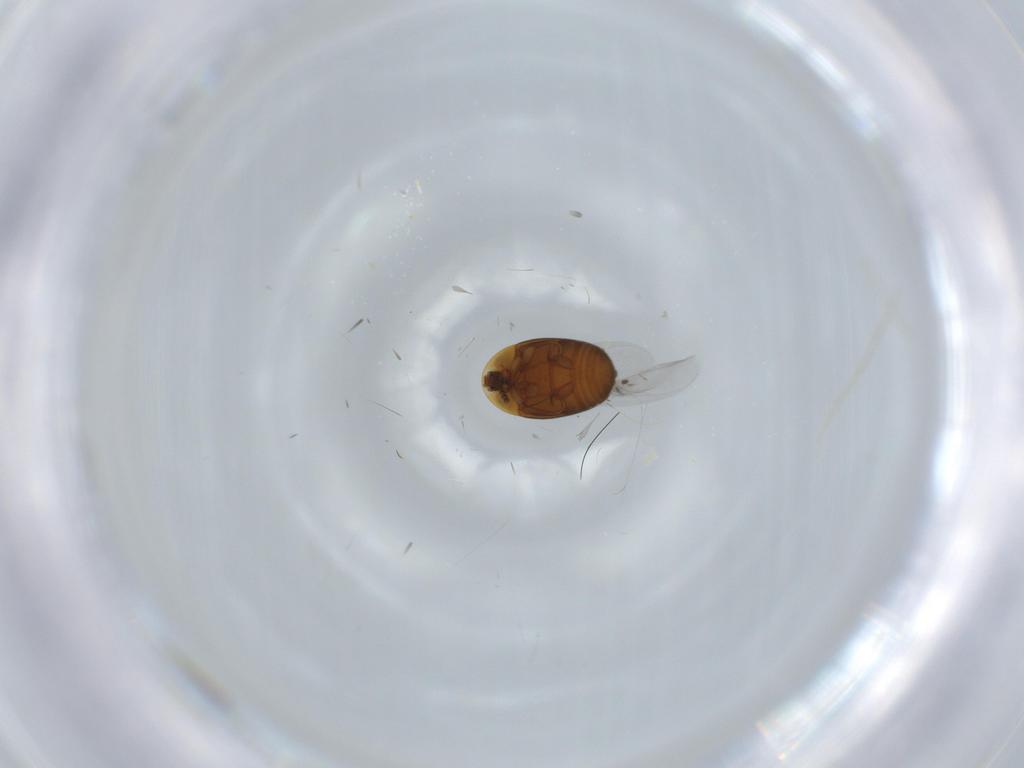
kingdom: Animalia
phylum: Arthropoda
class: Insecta
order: Coleoptera
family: Corylophidae
